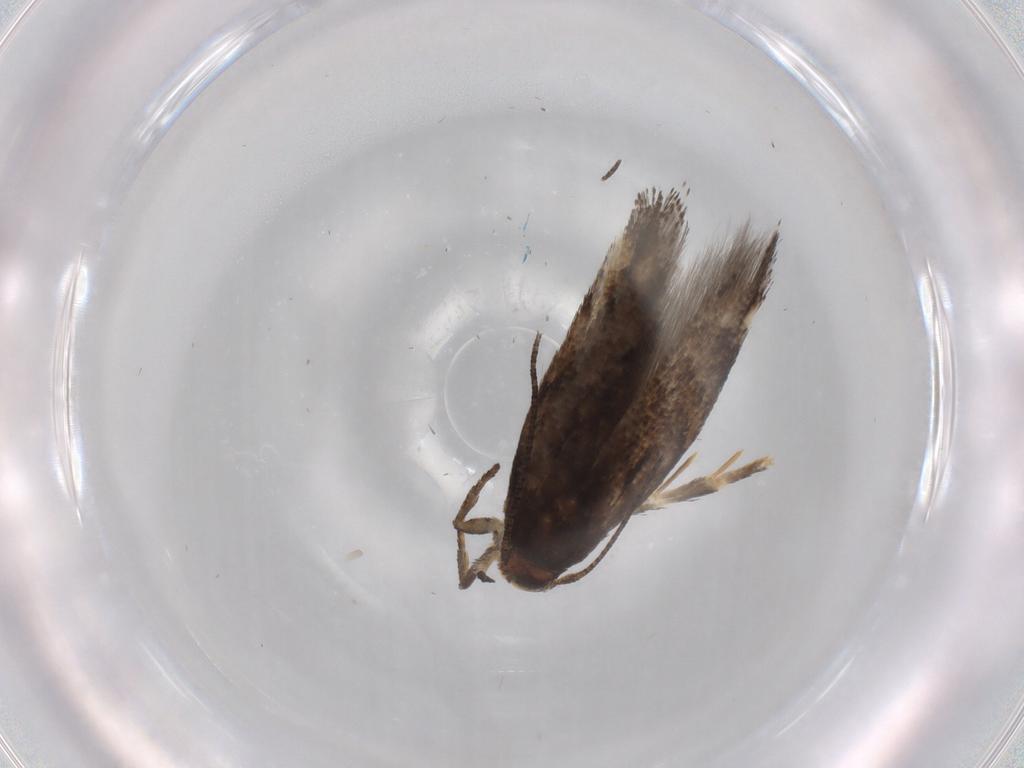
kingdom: Animalia
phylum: Arthropoda
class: Insecta
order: Lepidoptera
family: Momphidae
